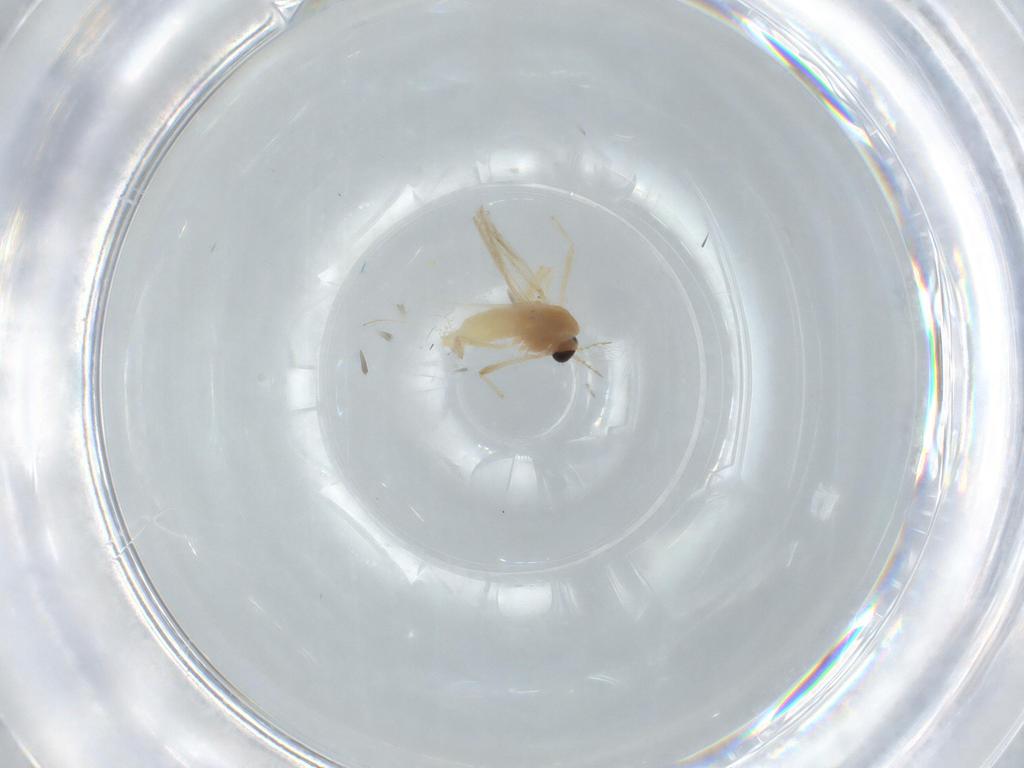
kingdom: Animalia
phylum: Arthropoda
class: Insecta
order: Diptera
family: Chironomidae
